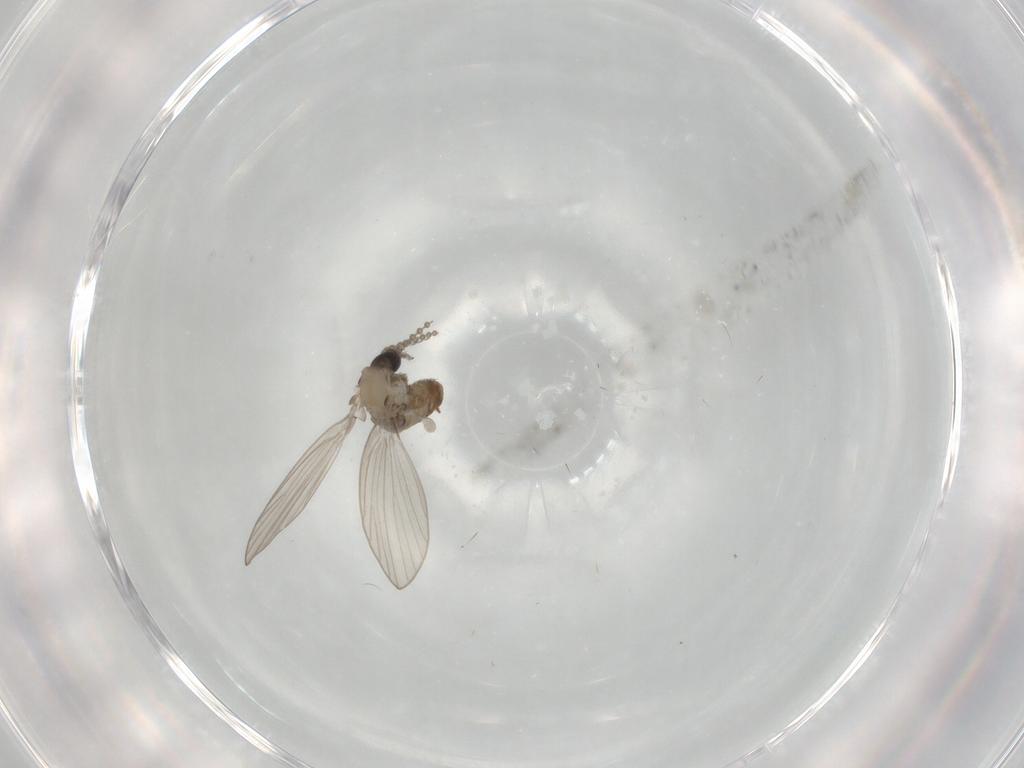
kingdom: Animalia
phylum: Arthropoda
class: Insecta
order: Diptera
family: Psychodidae
